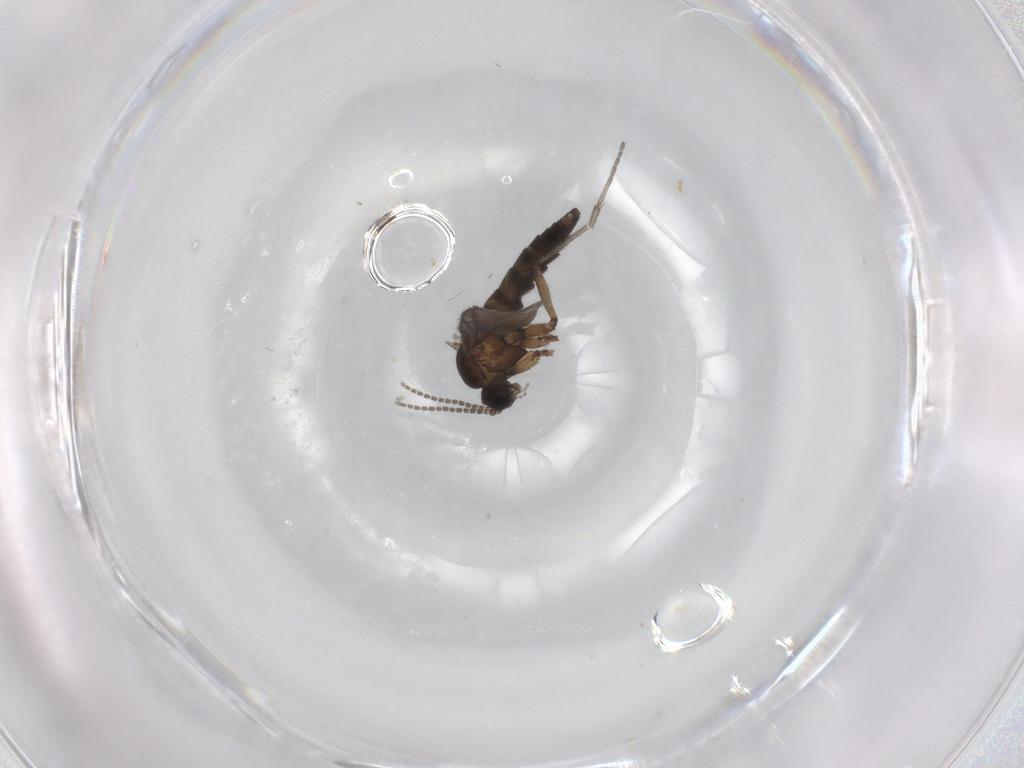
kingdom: Animalia
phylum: Arthropoda
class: Insecta
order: Diptera
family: Sciaridae
